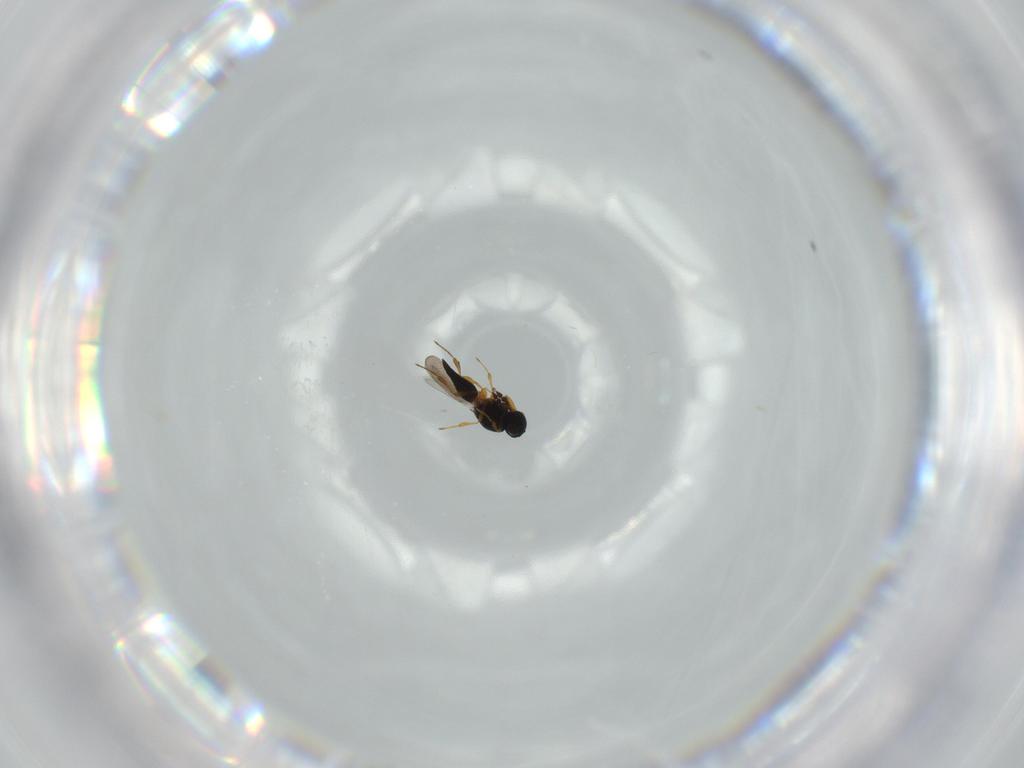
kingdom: Animalia
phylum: Arthropoda
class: Insecta
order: Hymenoptera
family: Platygastridae
